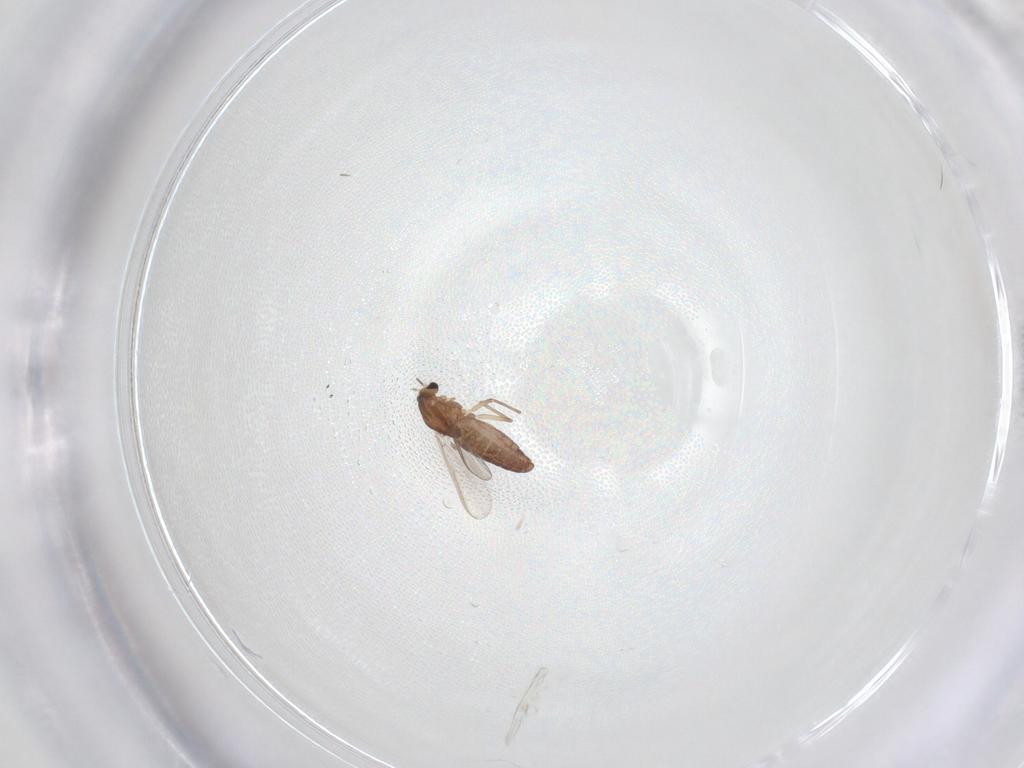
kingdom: Animalia
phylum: Arthropoda
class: Insecta
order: Diptera
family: Chironomidae
